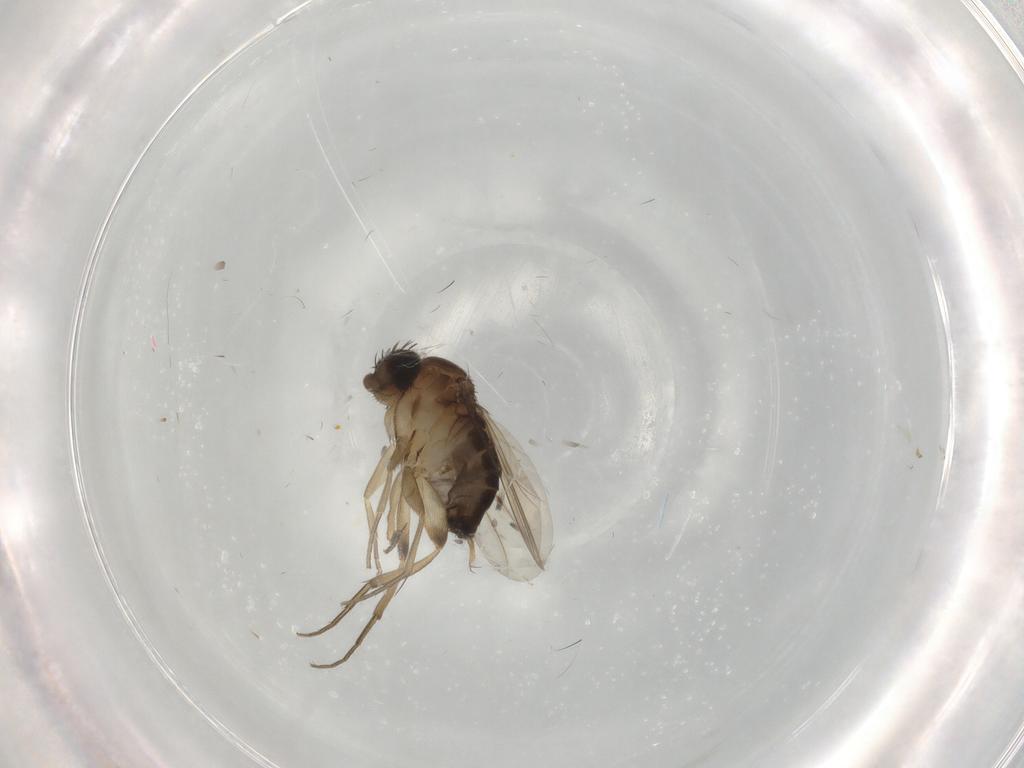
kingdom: Animalia
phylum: Arthropoda
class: Insecta
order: Diptera
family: Phoridae
